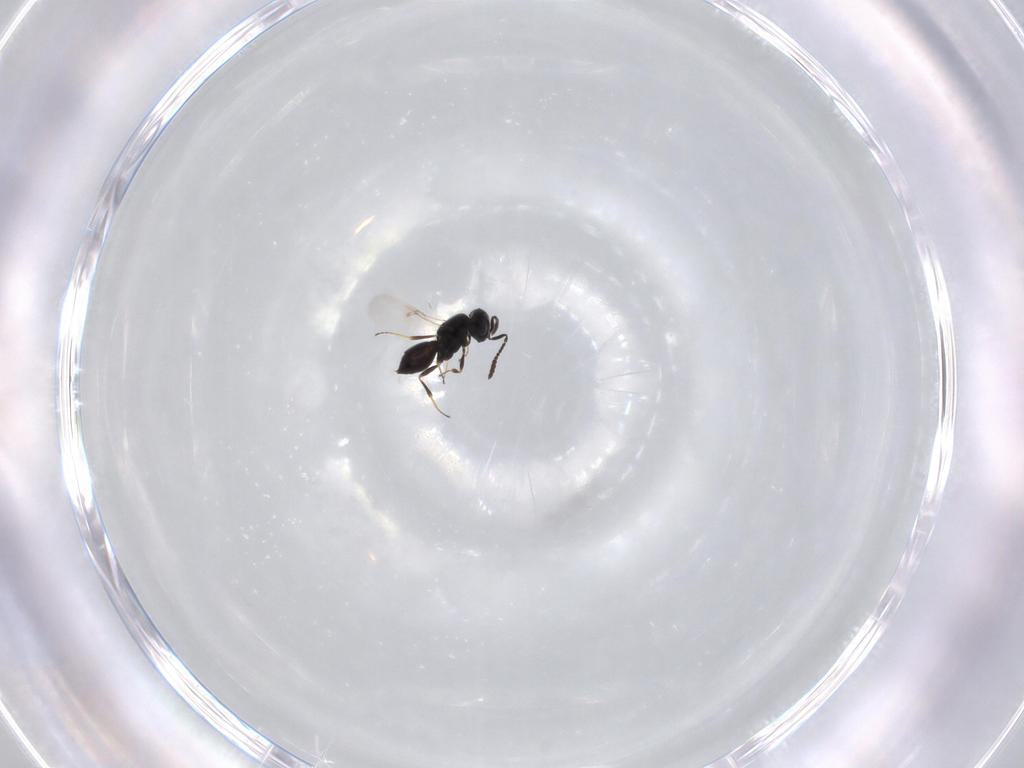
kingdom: Animalia
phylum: Arthropoda
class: Insecta
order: Hymenoptera
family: Scelionidae
